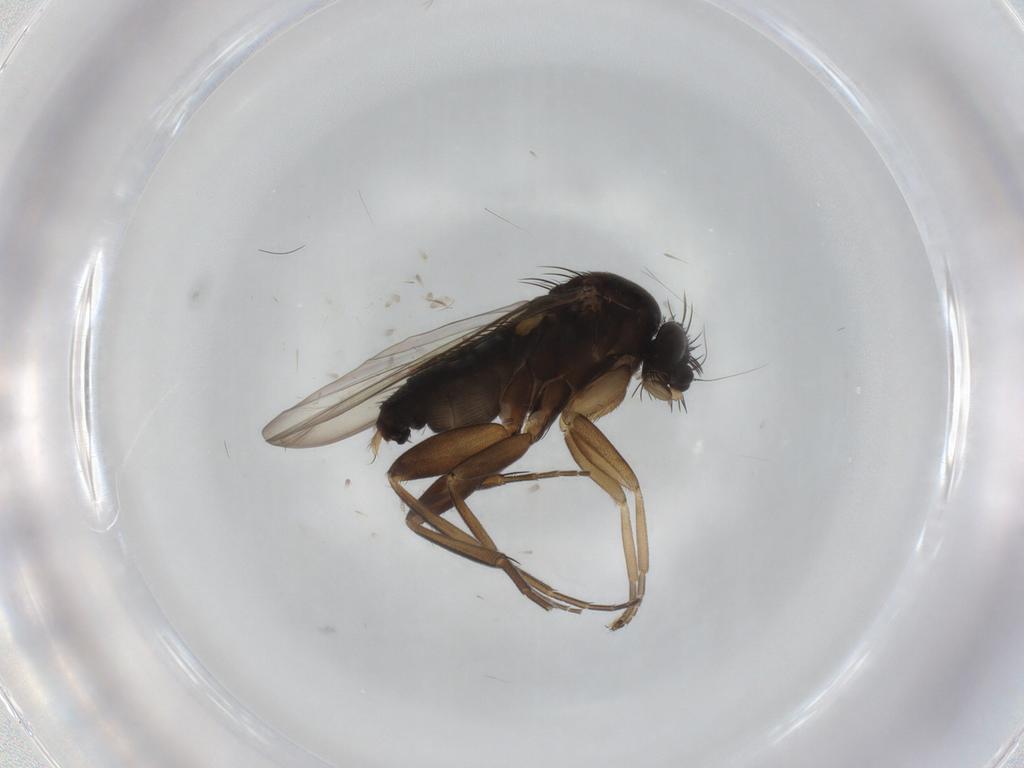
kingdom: Animalia
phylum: Arthropoda
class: Insecta
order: Diptera
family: Phoridae
